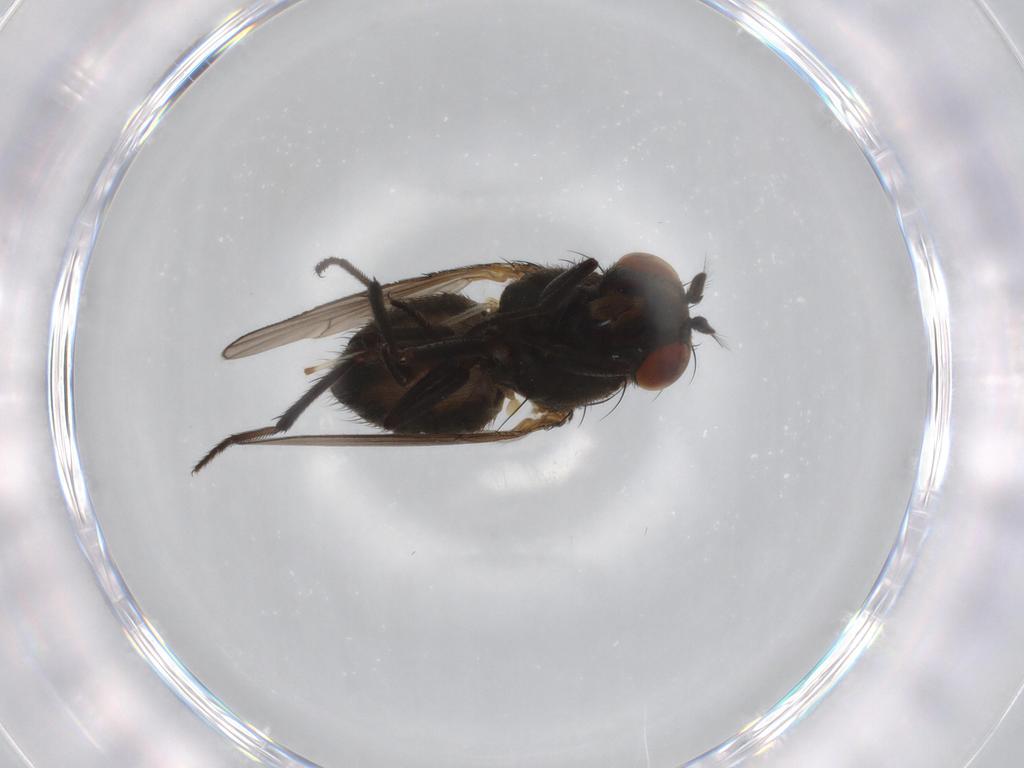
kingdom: Animalia
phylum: Arthropoda
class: Insecta
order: Diptera
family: Ephydridae
